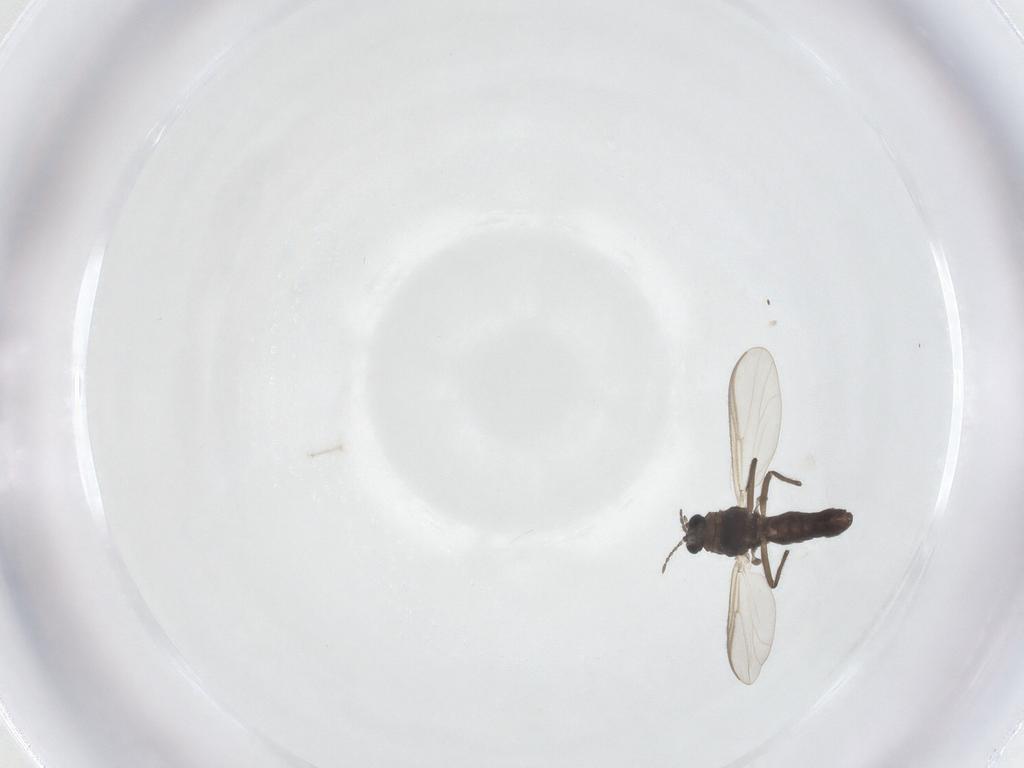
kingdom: Animalia
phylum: Arthropoda
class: Insecta
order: Diptera
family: Chironomidae
